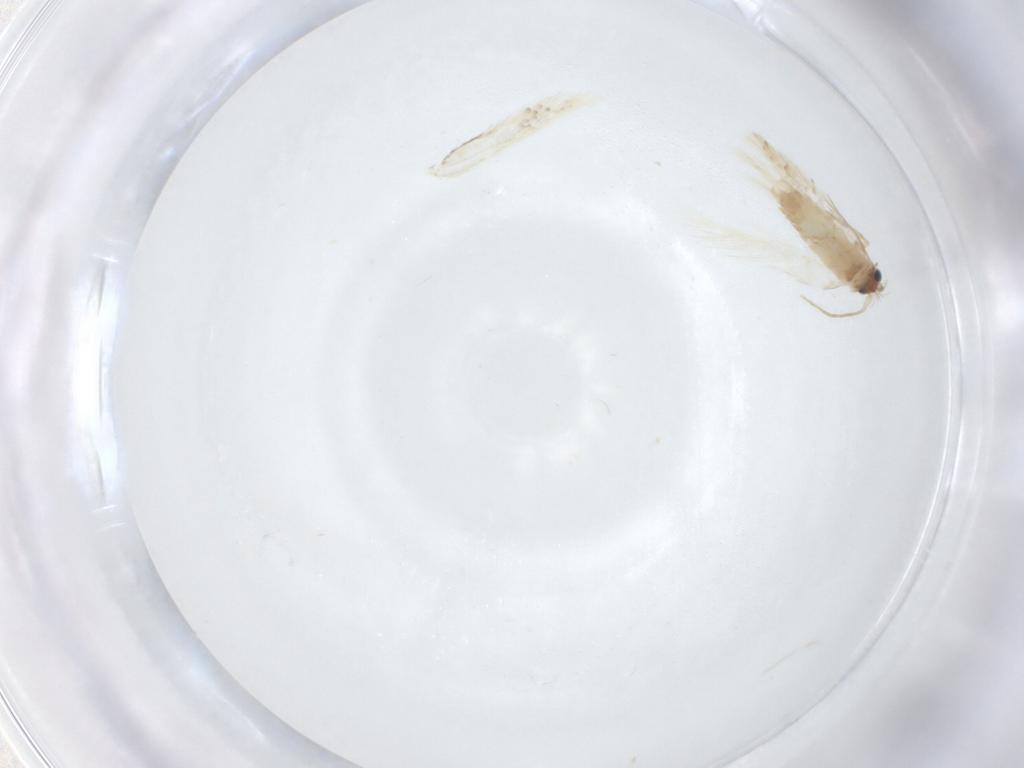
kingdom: Animalia
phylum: Arthropoda
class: Insecta
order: Lepidoptera
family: Nepticulidae
